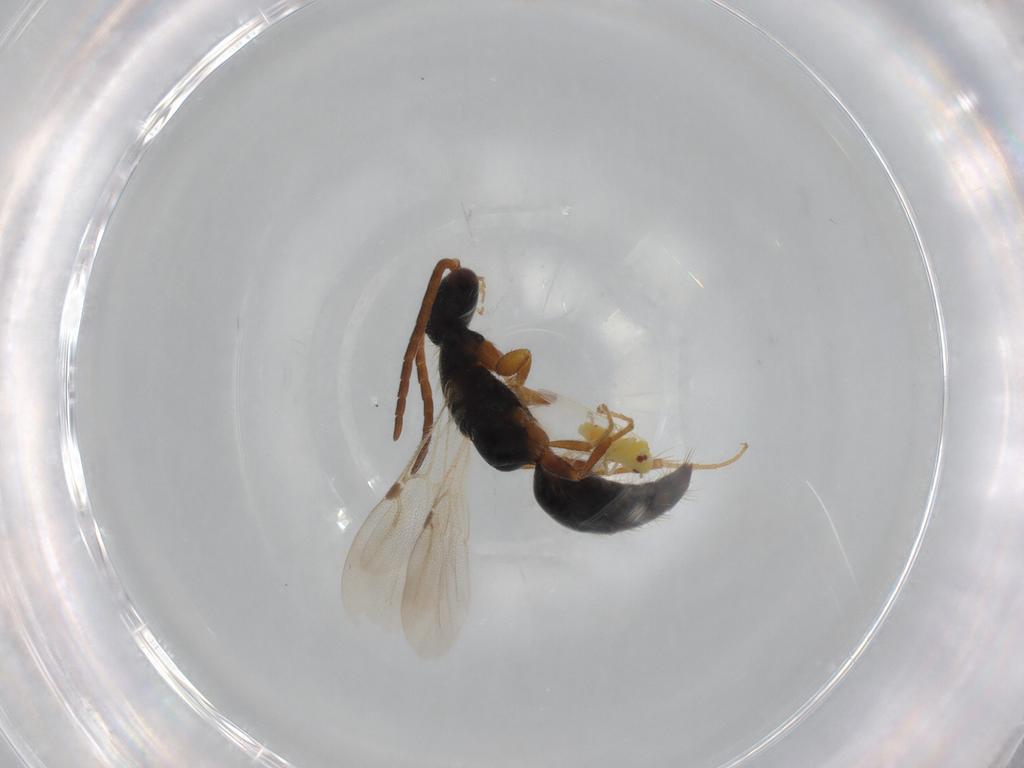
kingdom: Animalia
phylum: Arthropoda
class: Insecta
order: Hymenoptera
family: Bethylidae
